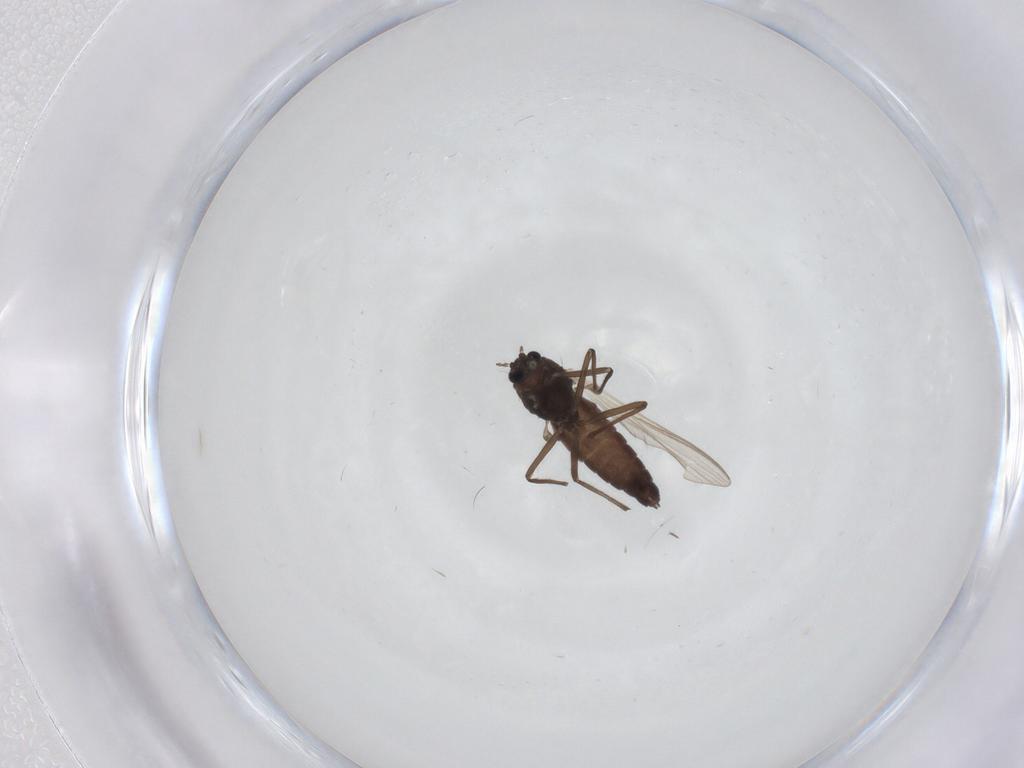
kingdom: Animalia
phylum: Arthropoda
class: Insecta
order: Diptera
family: Chironomidae
